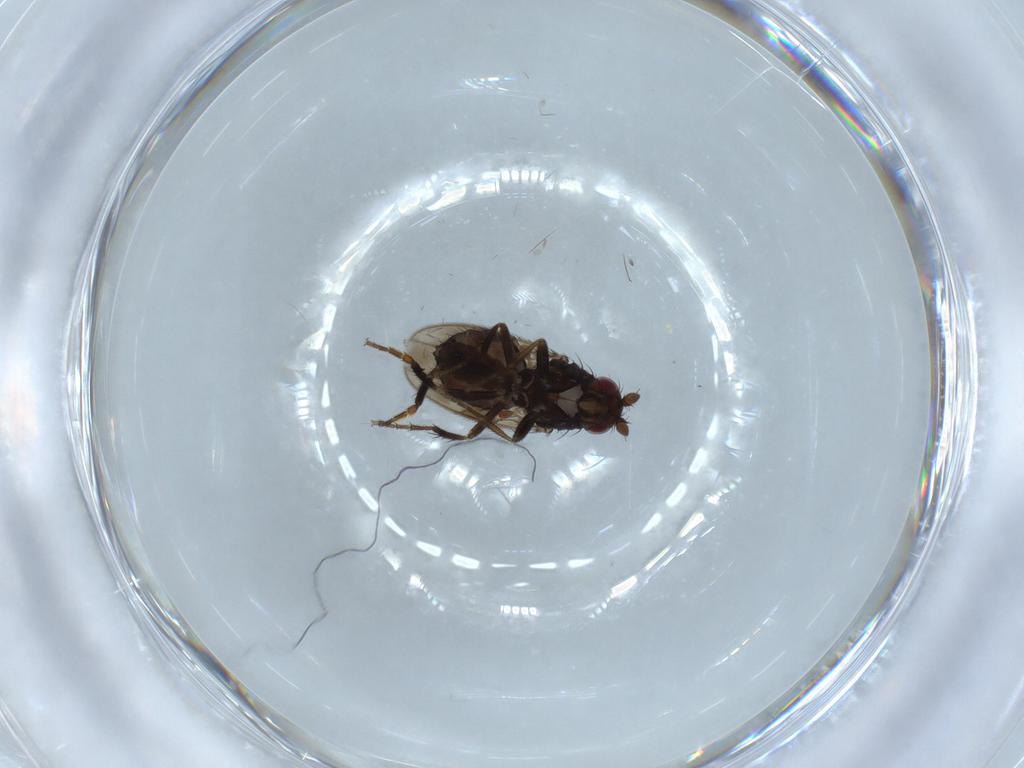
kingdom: Animalia
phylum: Arthropoda
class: Insecta
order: Diptera
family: Sphaeroceridae
